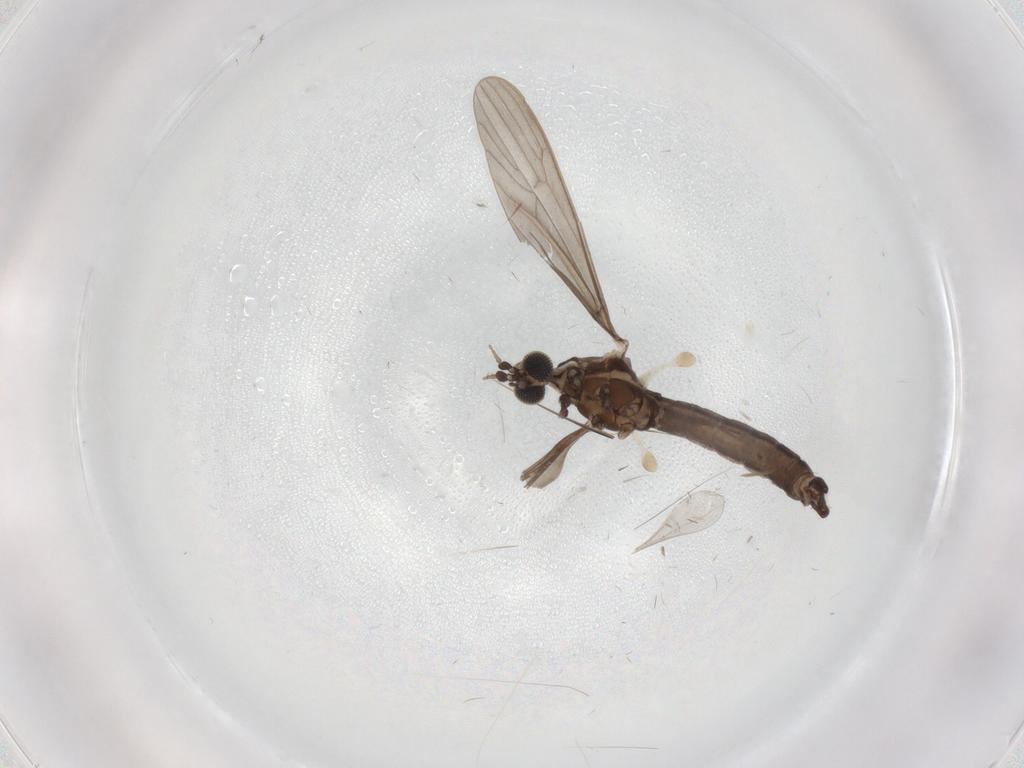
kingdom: Animalia
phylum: Arthropoda
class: Insecta
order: Diptera
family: Limoniidae
